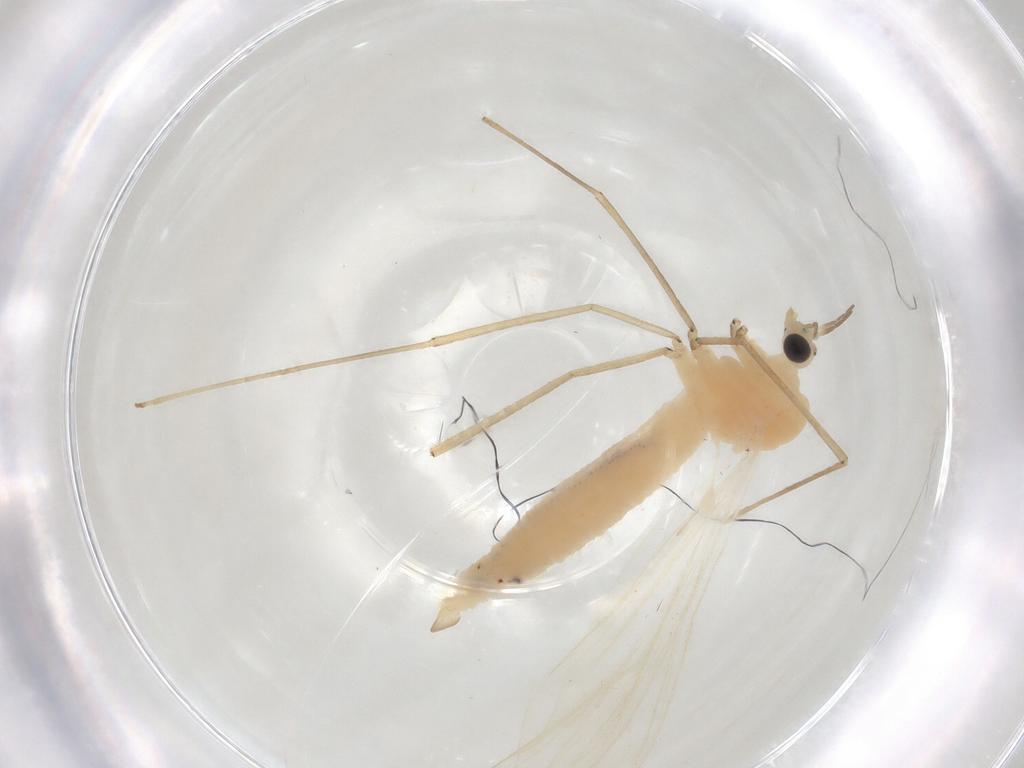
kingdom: Animalia
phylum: Arthropoda
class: Insecta
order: Diptera
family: Limoniidae
